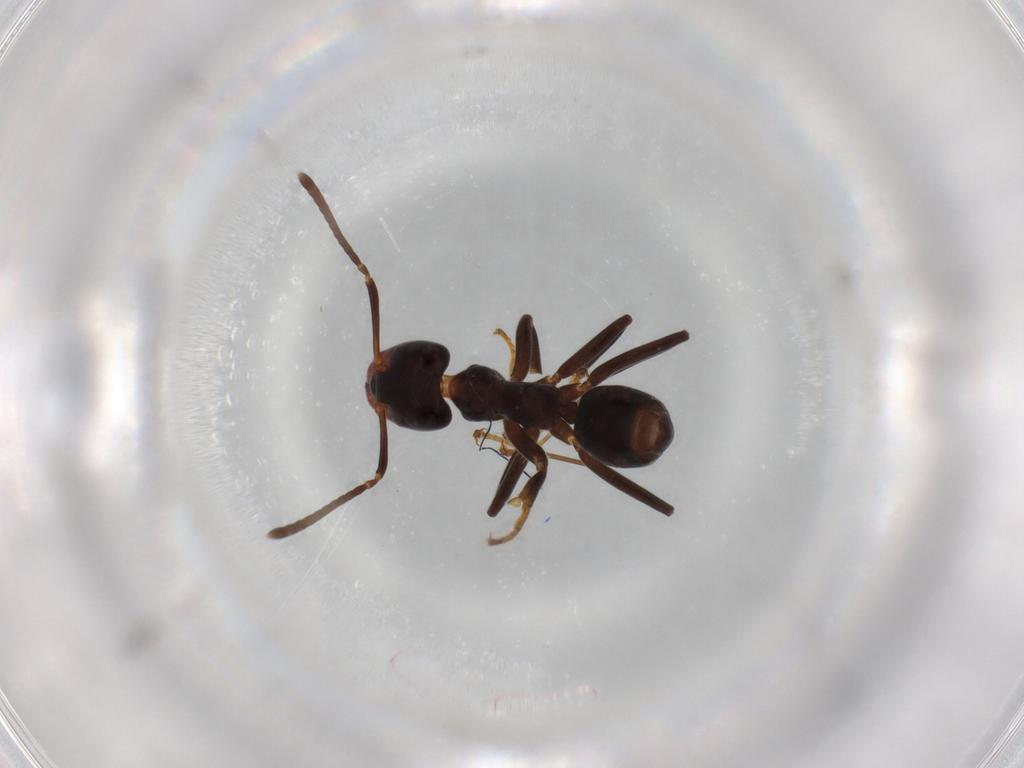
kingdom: Animalia
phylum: Arthropoda
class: Insecta
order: Hymenoptera
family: Formicidae
